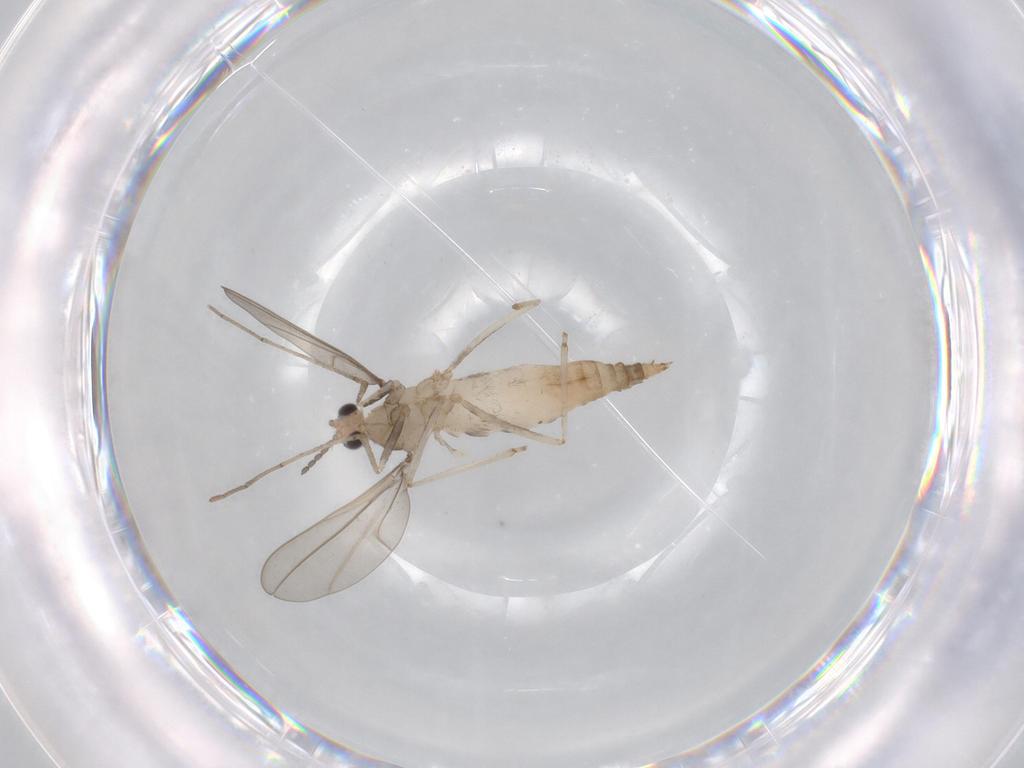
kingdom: Animalia
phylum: Arthropoda
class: Insecta
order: Diptera
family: Cecidomyiidae
